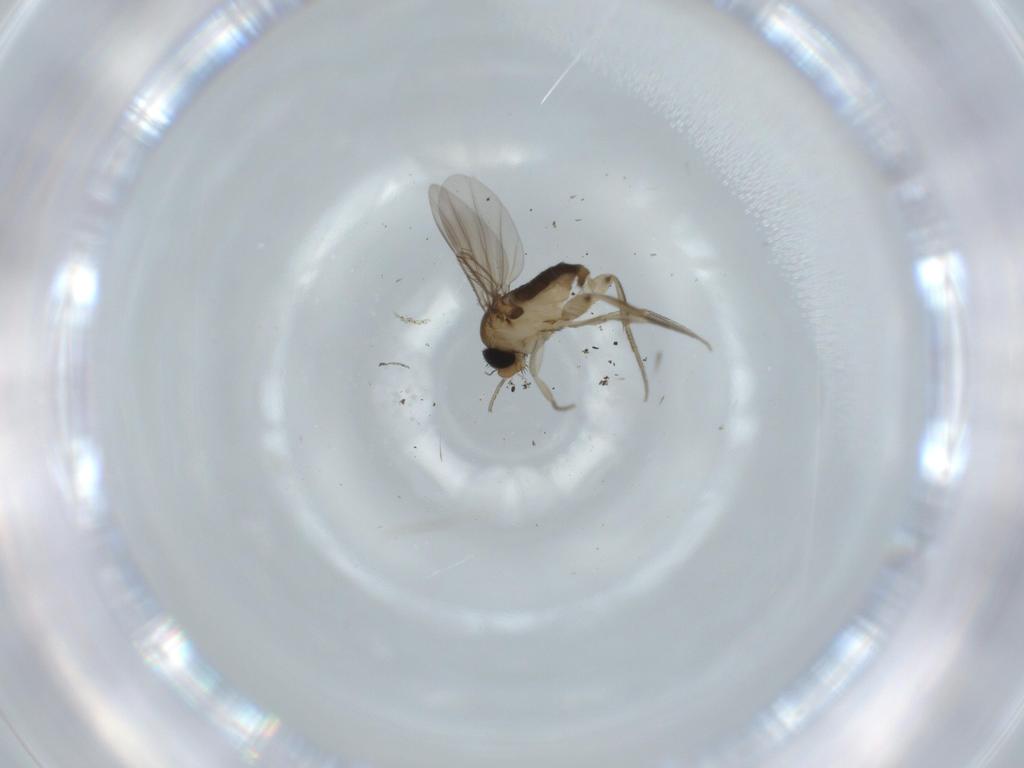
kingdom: Animalia
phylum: Arthropoda
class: Insecta
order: Diptera
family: Phoridae
